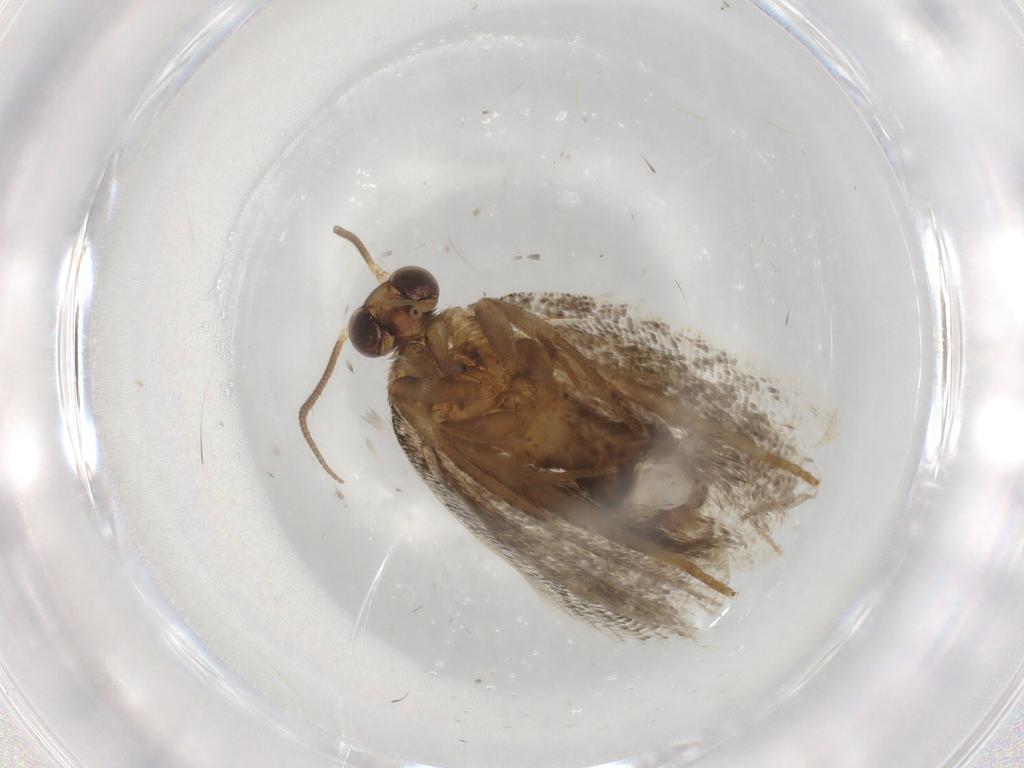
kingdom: Animalia
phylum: Arthropoda
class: Insecta
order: Lepidoptera
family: Tortricidae
